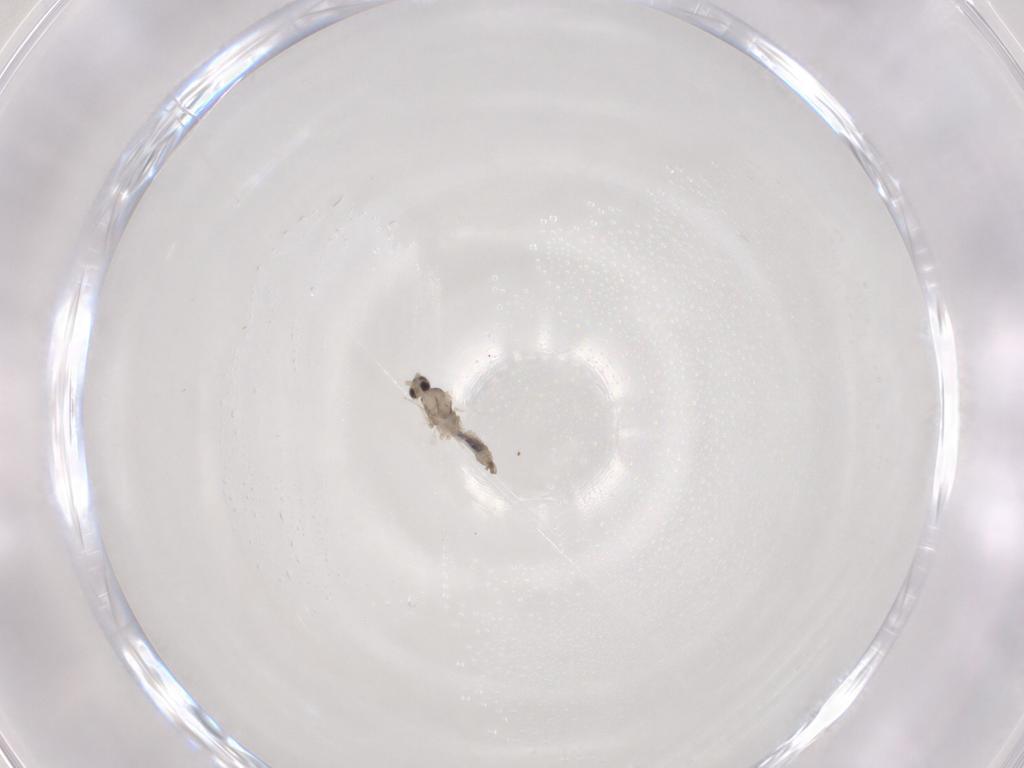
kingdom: Animalia
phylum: Arthropoda
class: Insecta
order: Diptera
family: Cecidomyiidae
